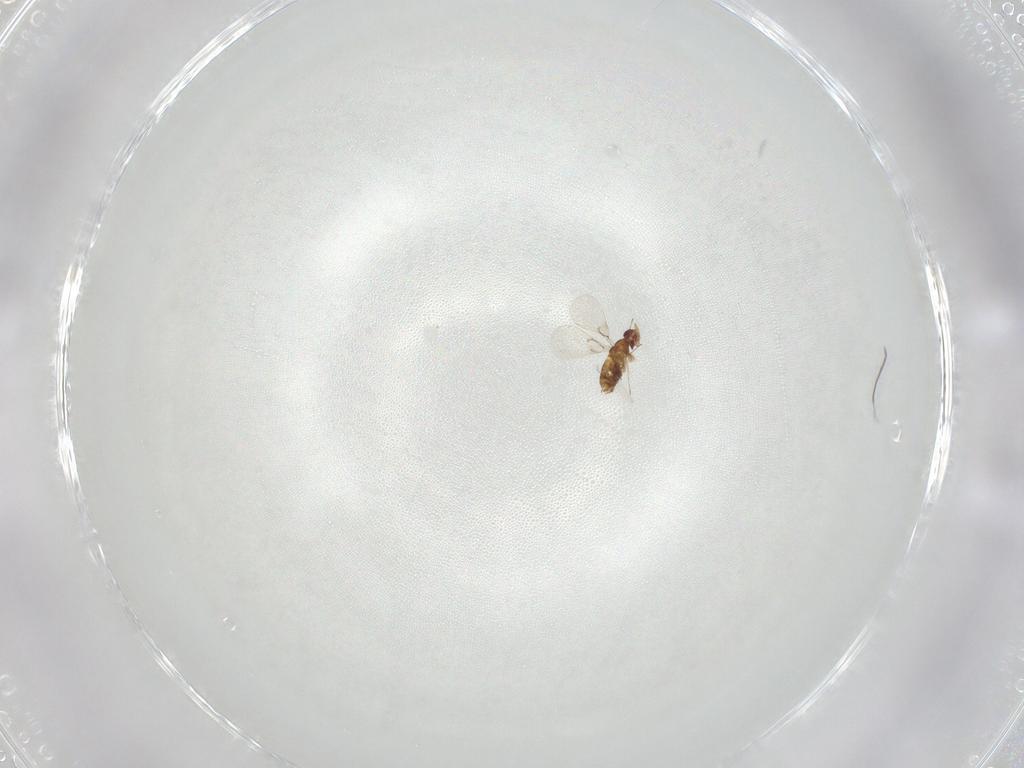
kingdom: Animalia
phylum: Arthropoda
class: Insecta
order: Hymenoptera
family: Trichogrammatidae
